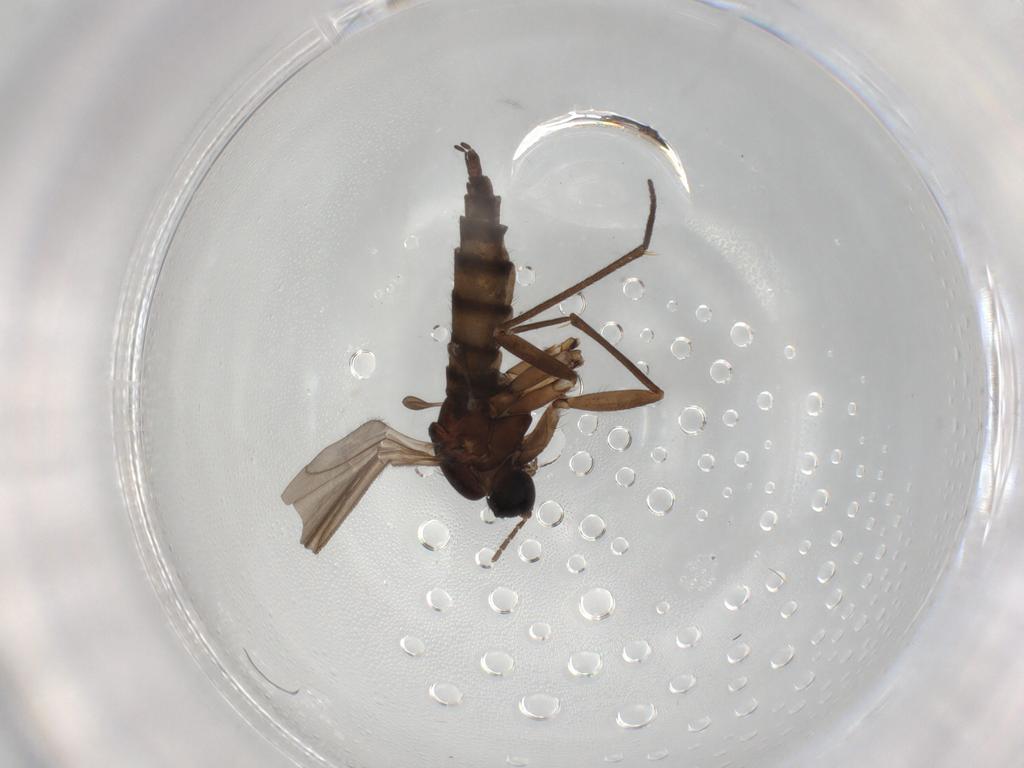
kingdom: Animalia
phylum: Arthropoda
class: Insecta
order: Diptera
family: Sciaridae
